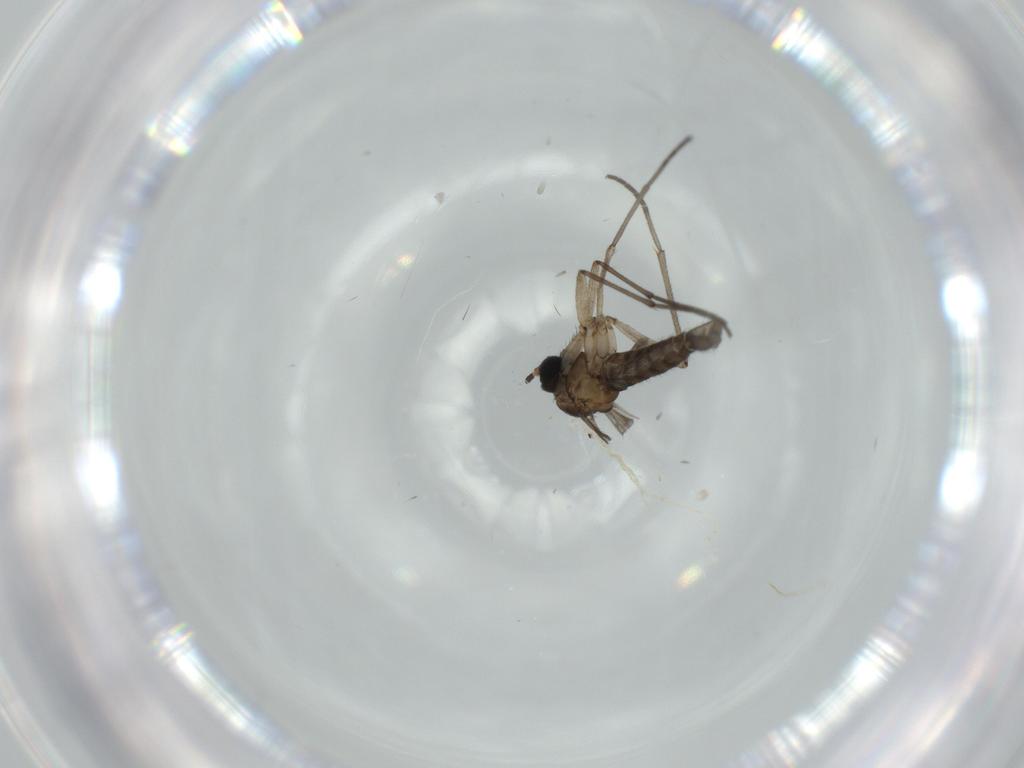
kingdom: Animalia
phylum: Arthropoda
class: Insecta
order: Diptera
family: Sciaridae
